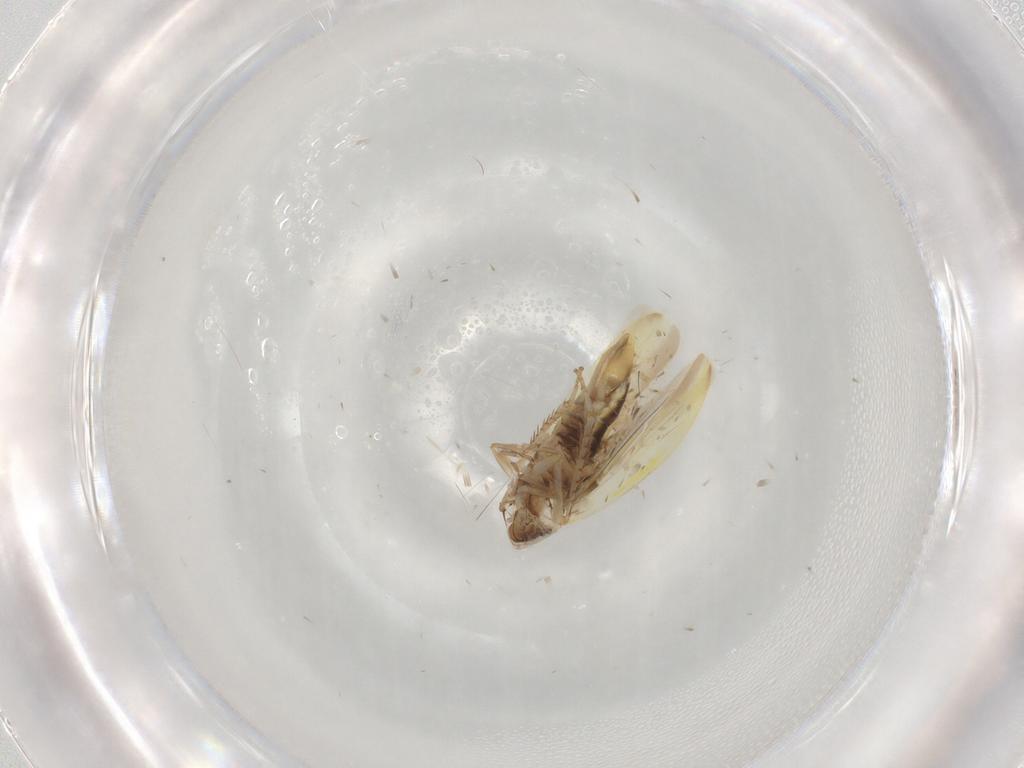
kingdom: Animalia
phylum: Arthropoda
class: Insecta
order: Hemiptera
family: Cicadellidae
